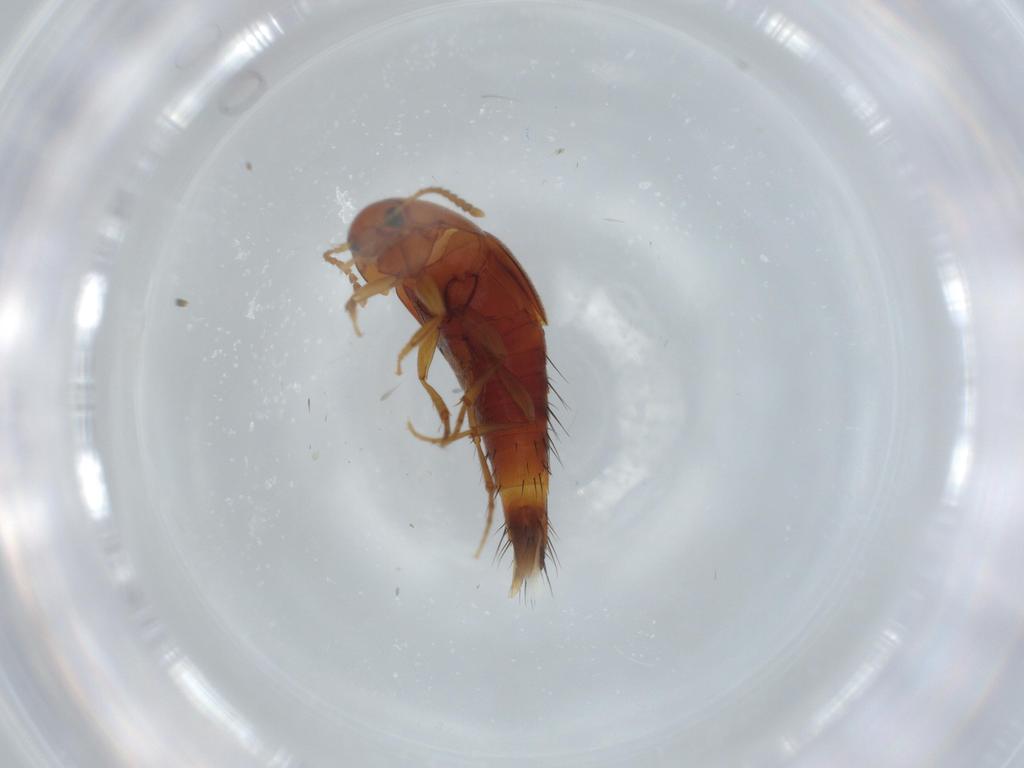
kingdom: Animalia
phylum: Arthropoda
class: Insecta
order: Coleoptera
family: Staphylinidae
